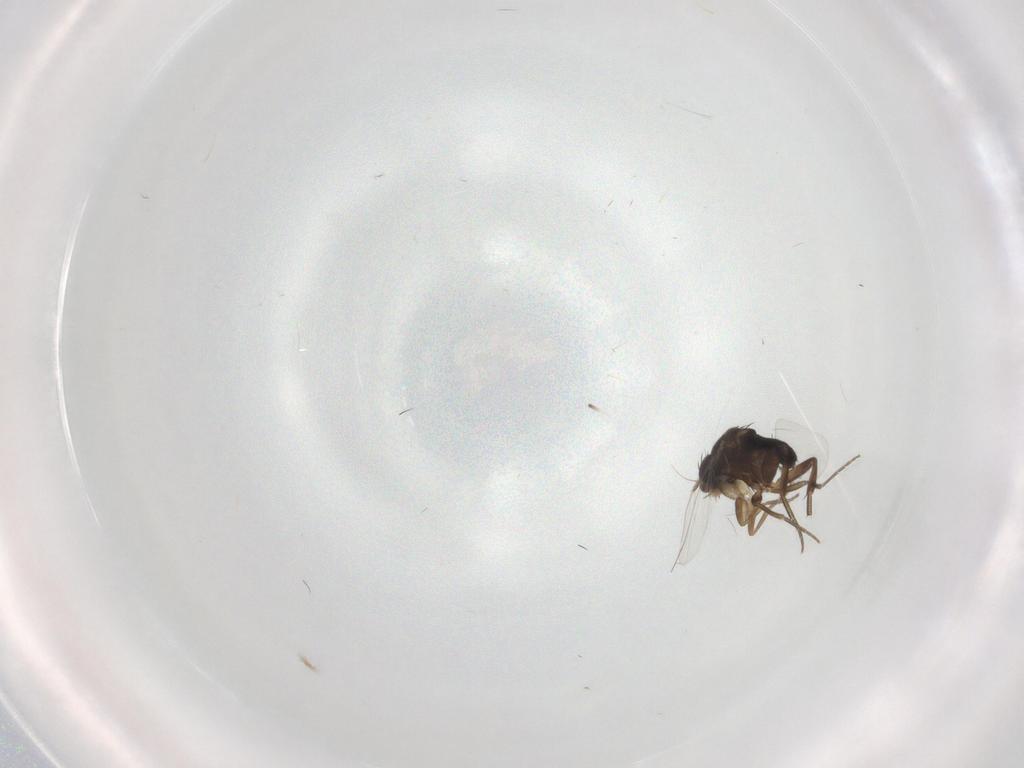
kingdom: Animalia
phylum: Arthropoda
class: Insecta
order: Diptera
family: Phoridae
